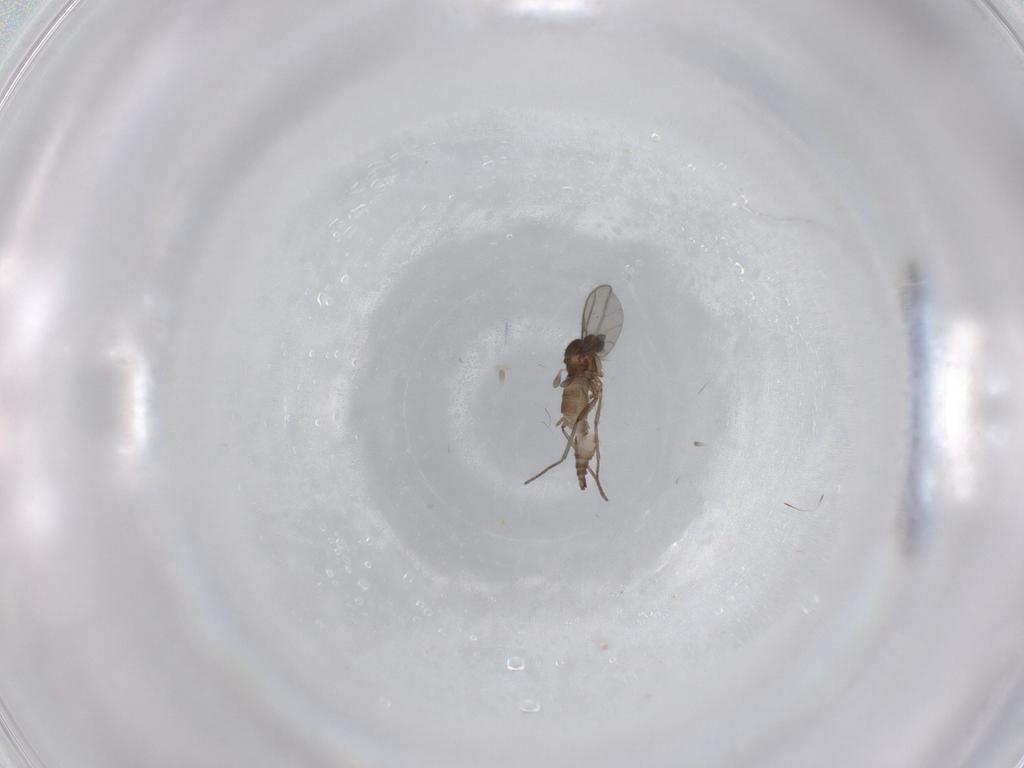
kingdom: Animalia
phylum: Arthropoda
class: Insecta
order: Diptera
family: Sciaridae
